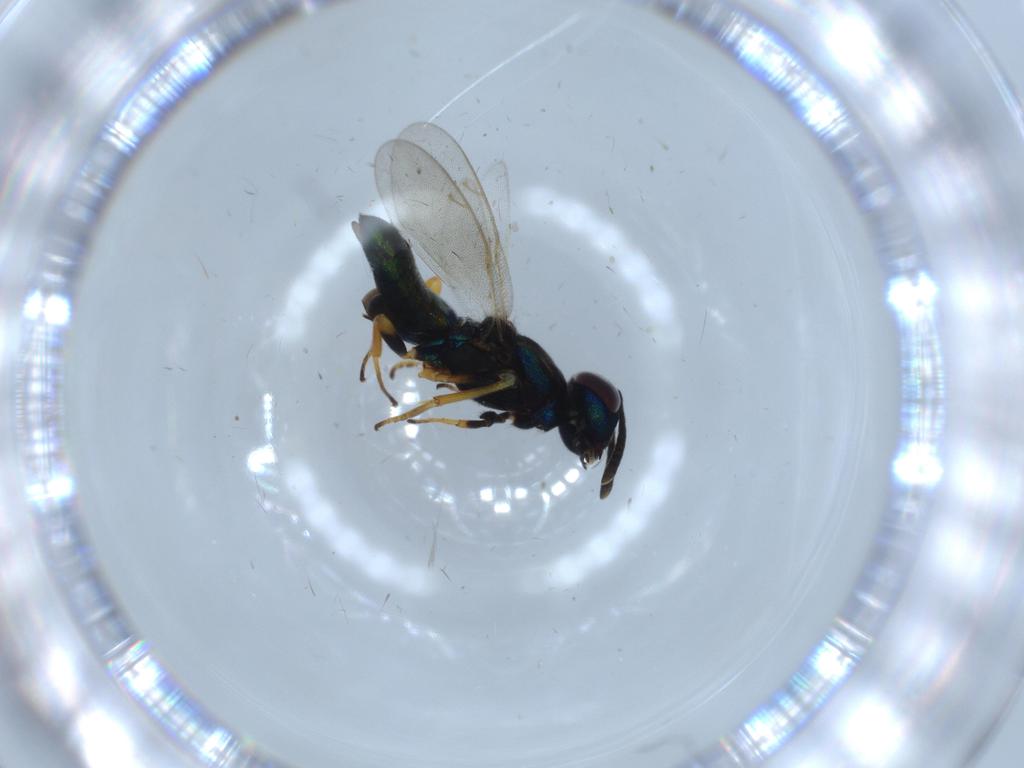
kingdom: Animalia
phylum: Arthropoda
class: Insecta
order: Hymenoptera
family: Eupelmidae
